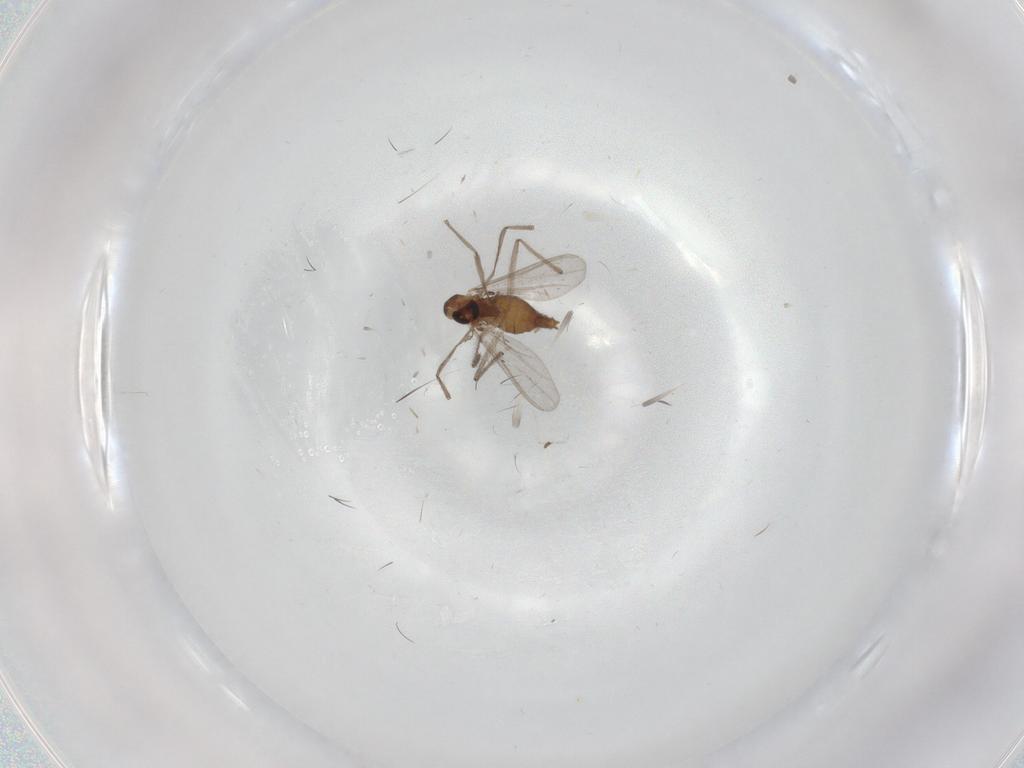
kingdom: Animalia
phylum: Arthropoda
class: Insecta
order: Diptera
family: Chironomidae
